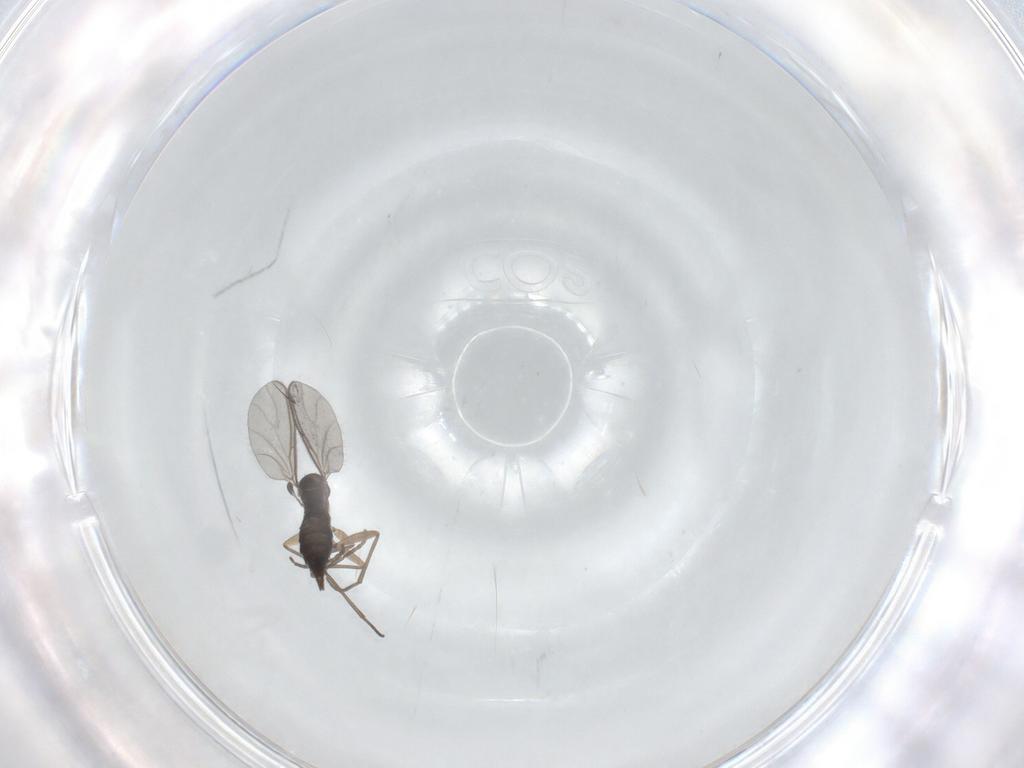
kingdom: Animalia
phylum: Arthropoda
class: Insecta
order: Diptera
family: Sciaridae
